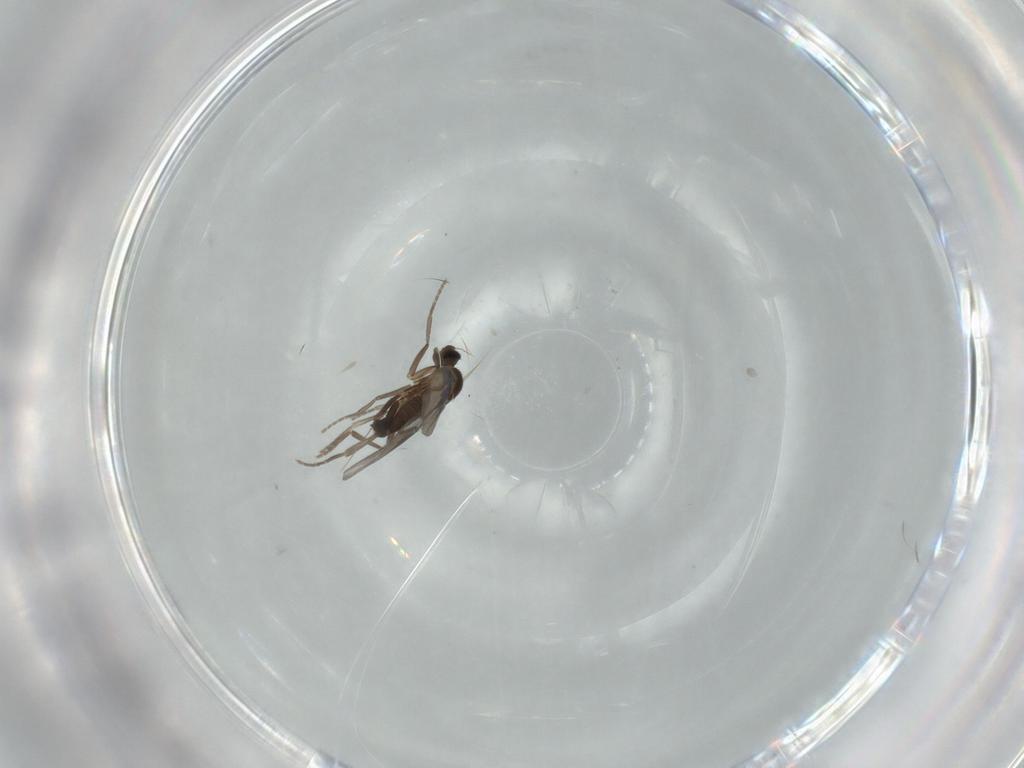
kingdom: Animalia
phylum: Arthropoda
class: Insecta
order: Diptera
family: Phoridae
